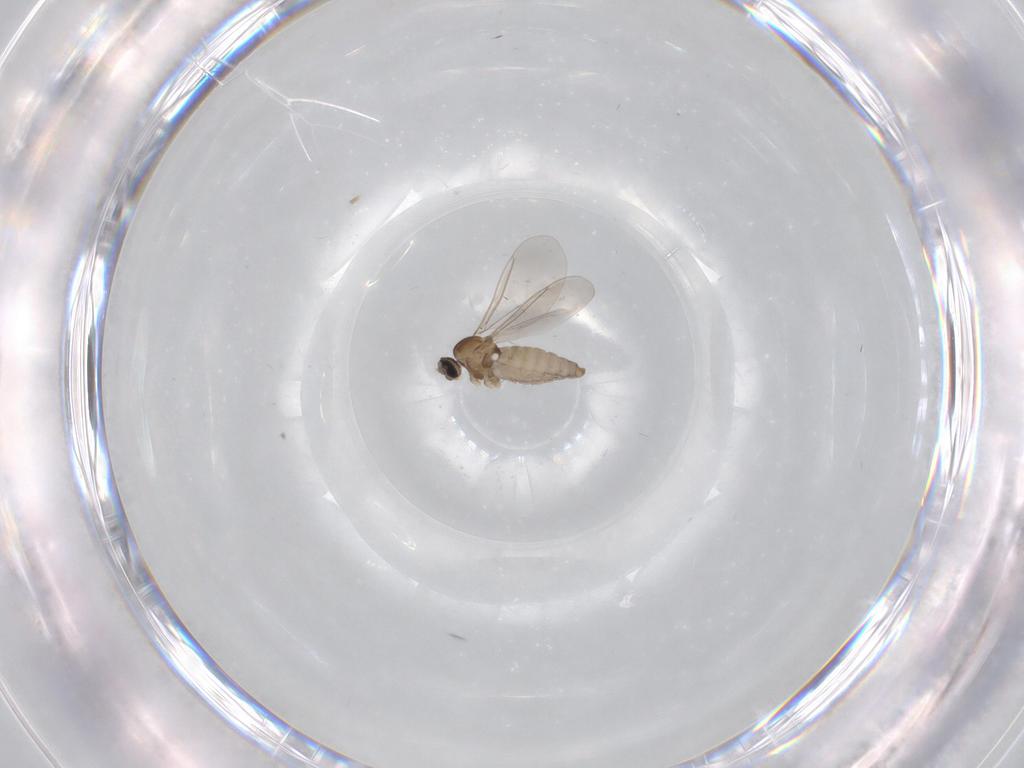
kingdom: Animalia
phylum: Arthropoda
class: Insecta
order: Diptera
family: Cecidomyiidae
